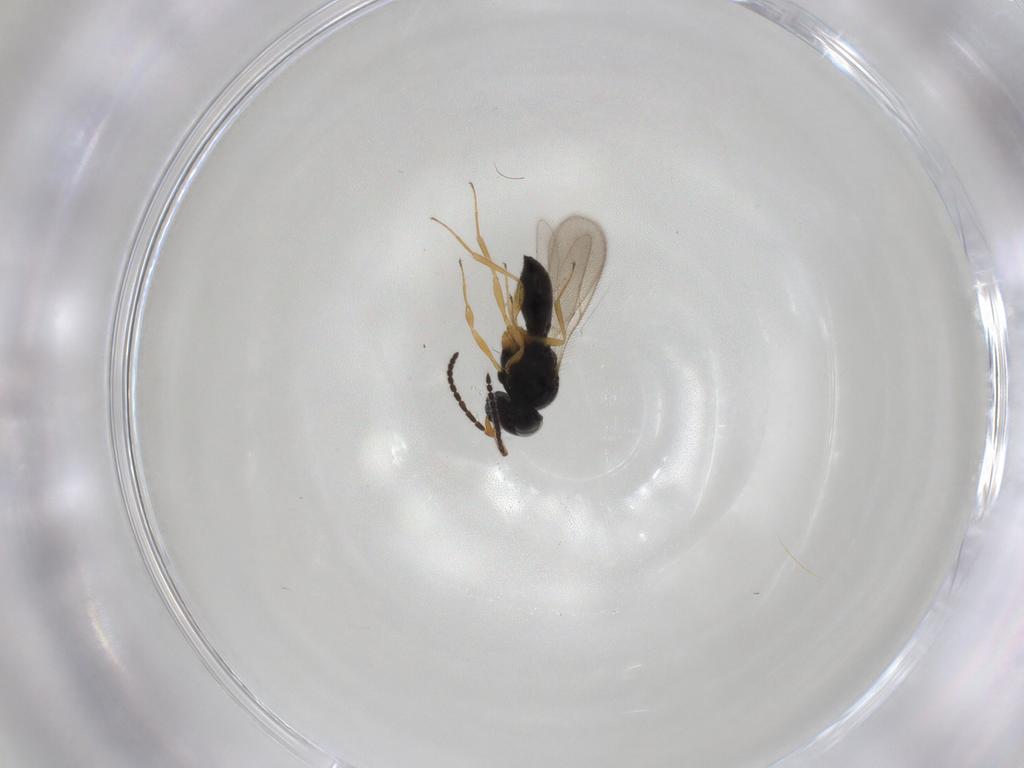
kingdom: Animalia
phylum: Arthropoda
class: Insecta
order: Hymenoptera
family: Scelionidae
